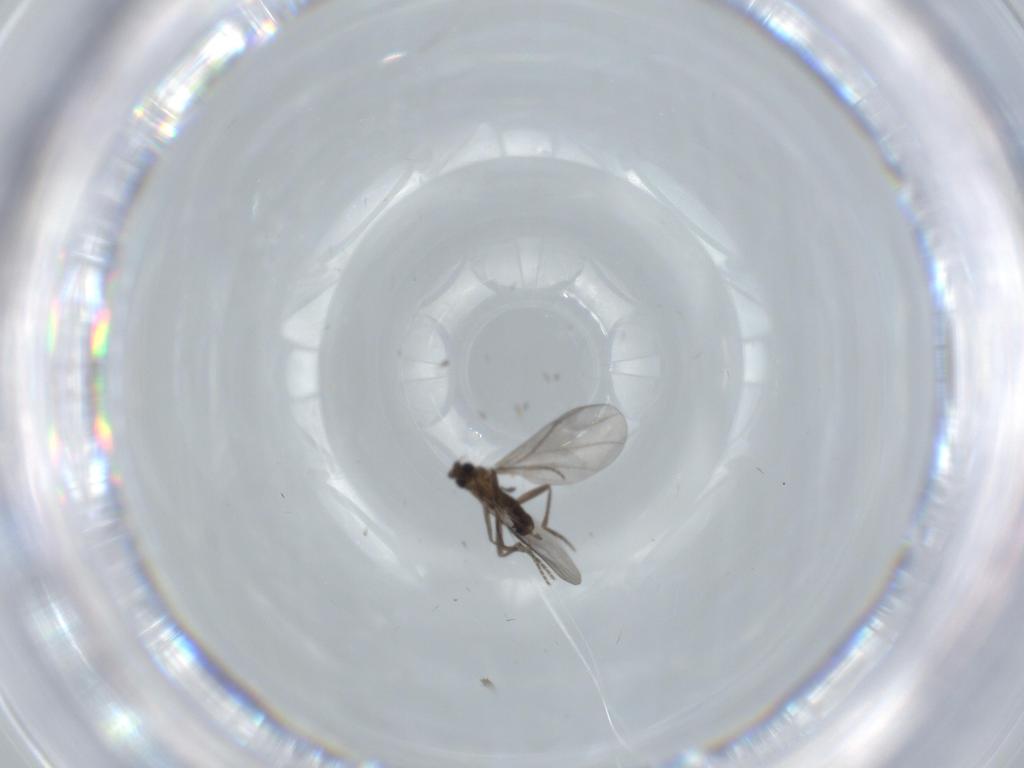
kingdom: Animalia
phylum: Arthropoda
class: Insecta
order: Diptera
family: Phoridae
